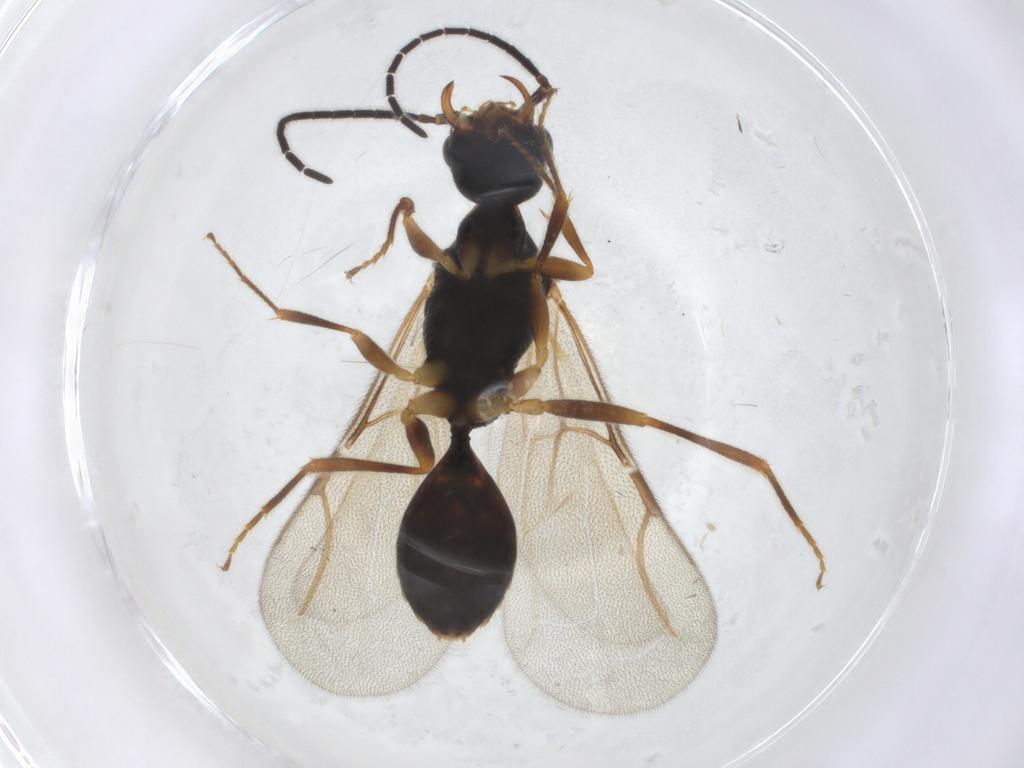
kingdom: Animalia
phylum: Arthropoda
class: Insecta
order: Hymenoptera
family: Bethylidae
